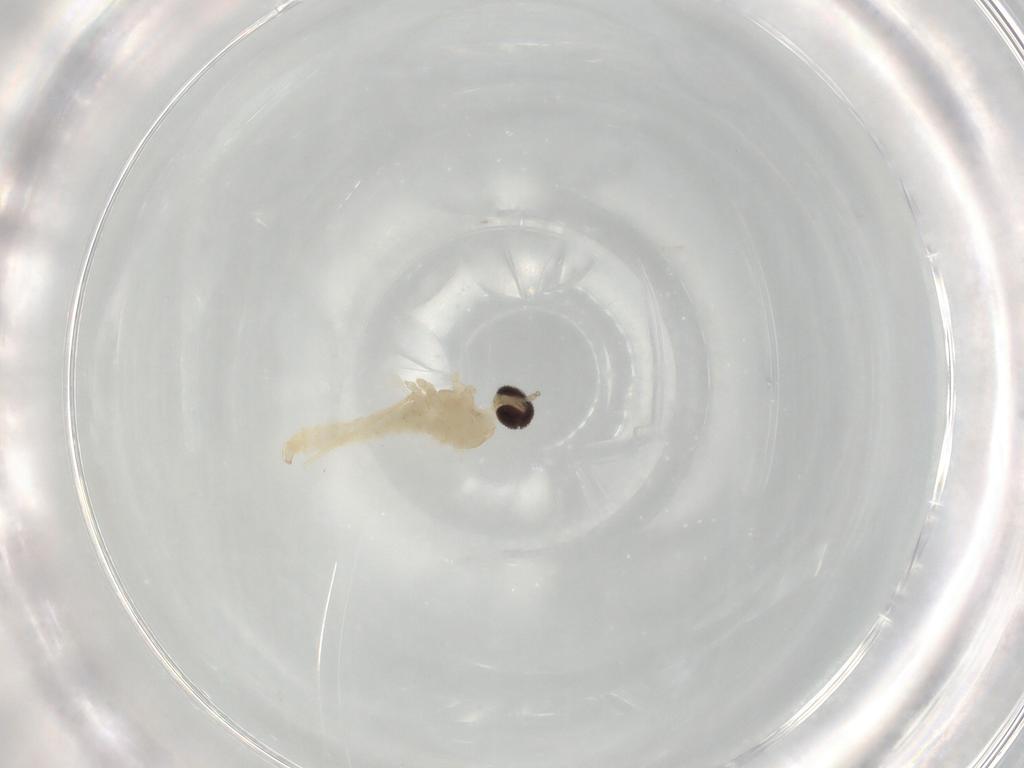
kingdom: Animalia
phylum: Arthropoda
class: Insecta
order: Diptera
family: Cecidomyiidae
